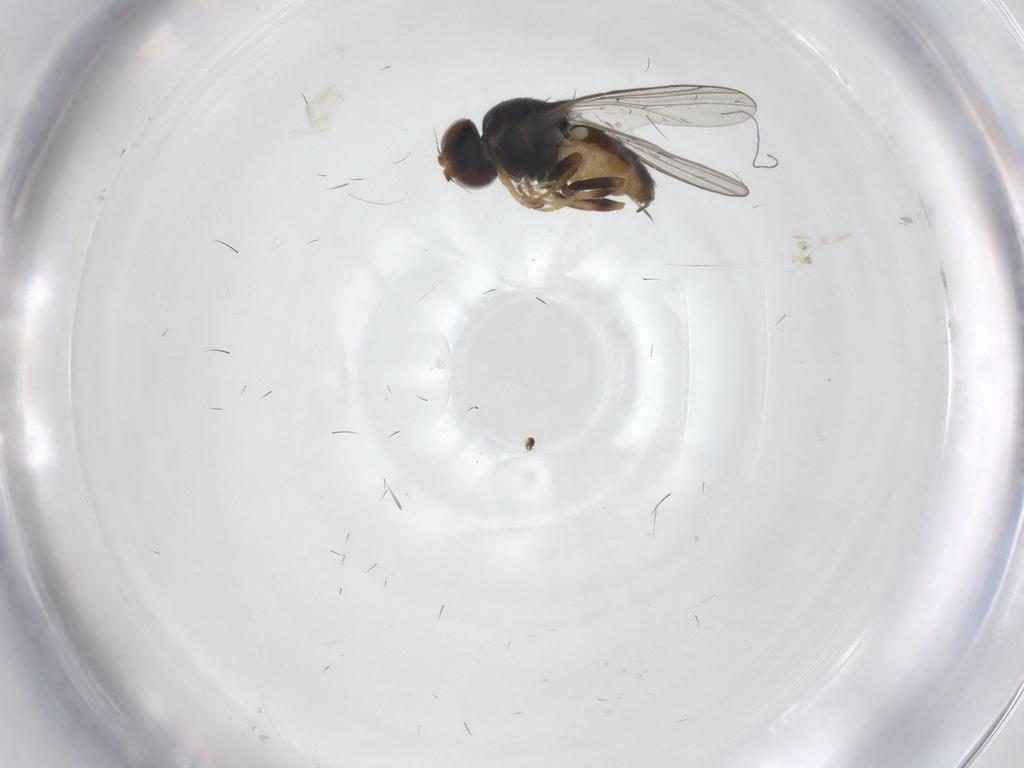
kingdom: Animalia
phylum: Arthropoda
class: Insecta
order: Diptera
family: Chloropidae
